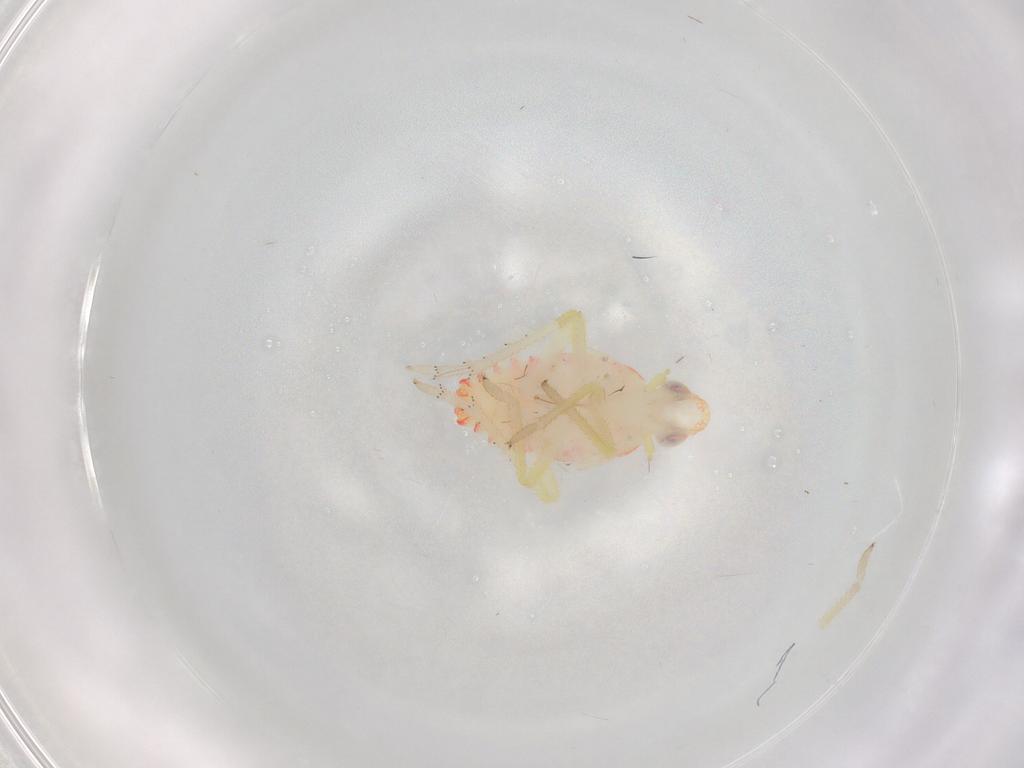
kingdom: Animalia
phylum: Arthropoda
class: Insecta
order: Hemiptera
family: Tropiduchidae
